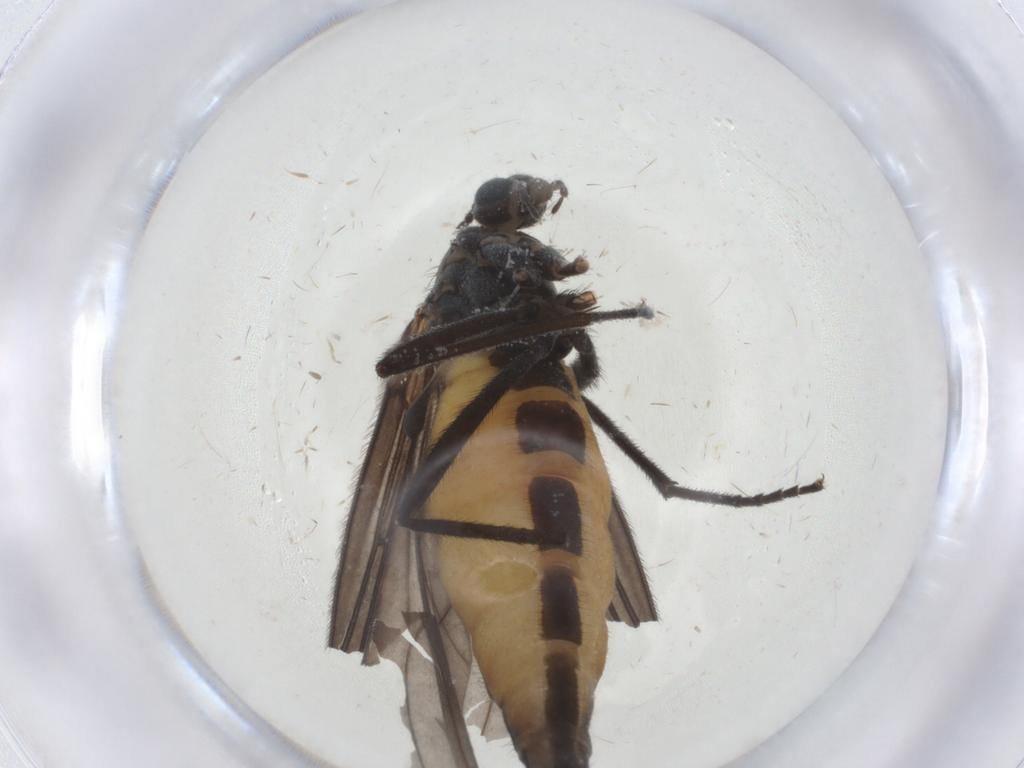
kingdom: Animalia
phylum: Arthropoda
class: Insecta
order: Diptera
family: Sciaridae
